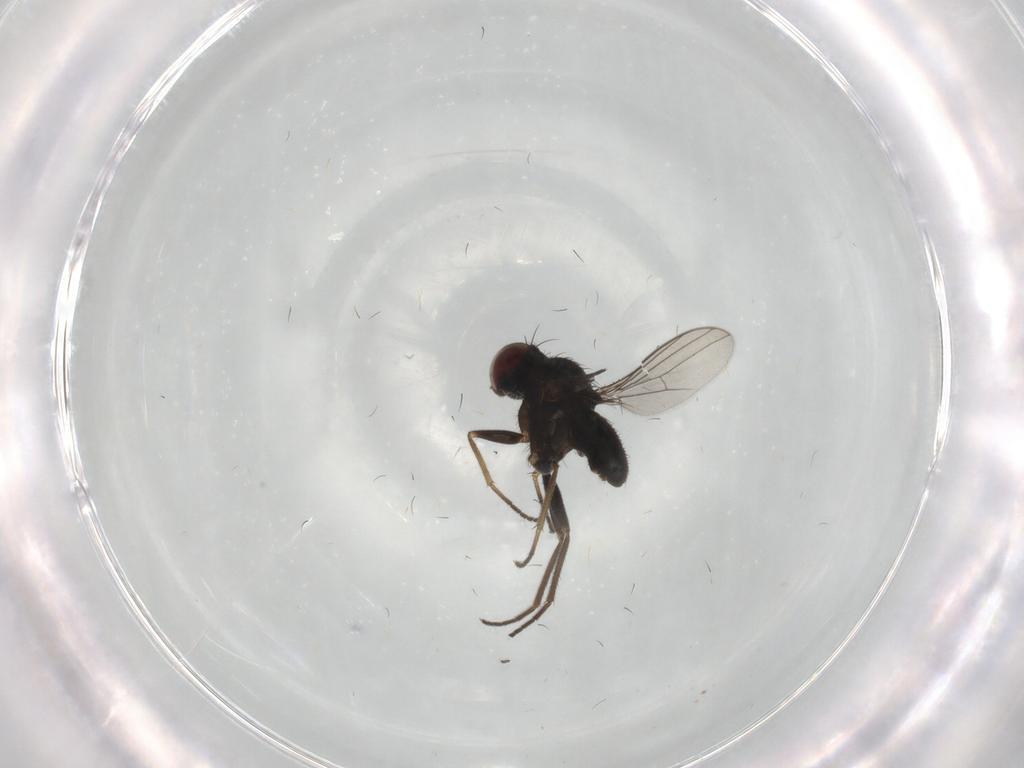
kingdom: Animalia
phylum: Arthropoda
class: Insecta
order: Diptera
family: Dolichopodidae
